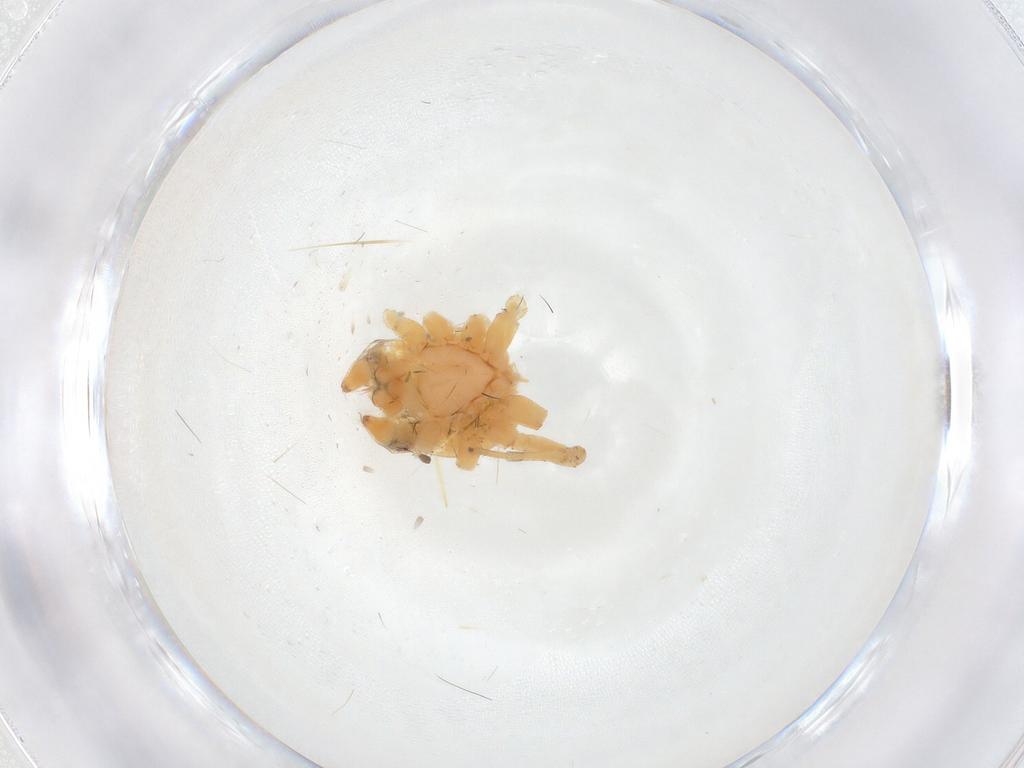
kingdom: Animalia
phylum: Arthropoda
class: Arachnida
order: Araneae
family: Gnaphosidae
